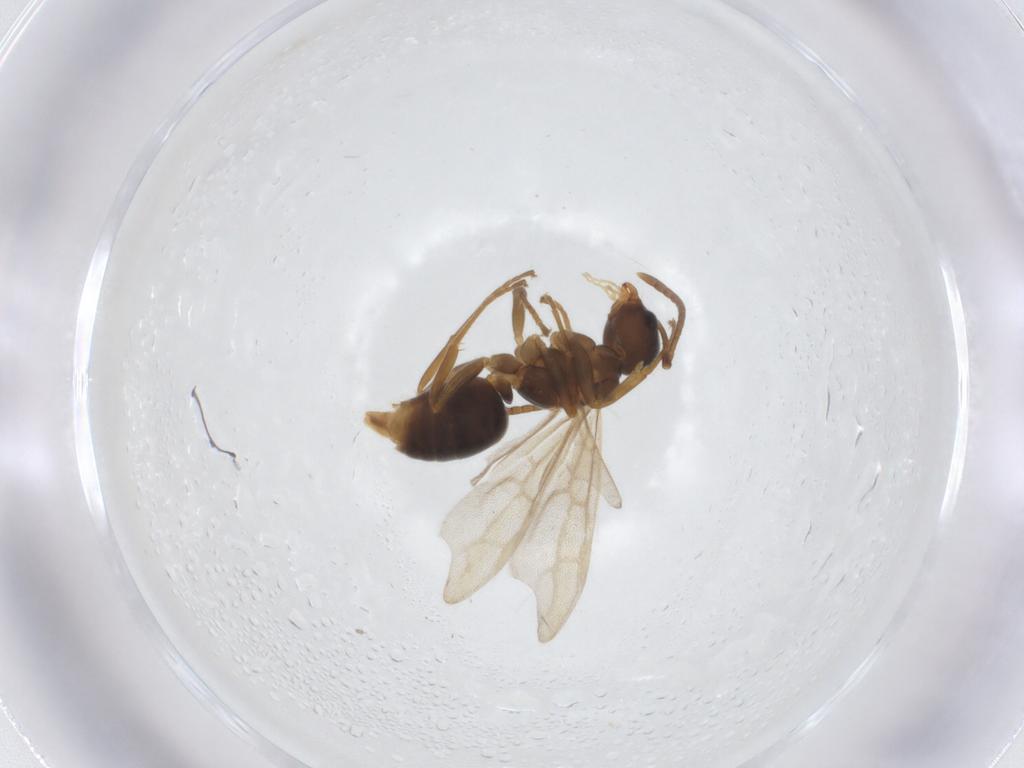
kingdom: Animalia
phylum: Arthropoda
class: Insecta
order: Hymenoptera
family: Formicidae
